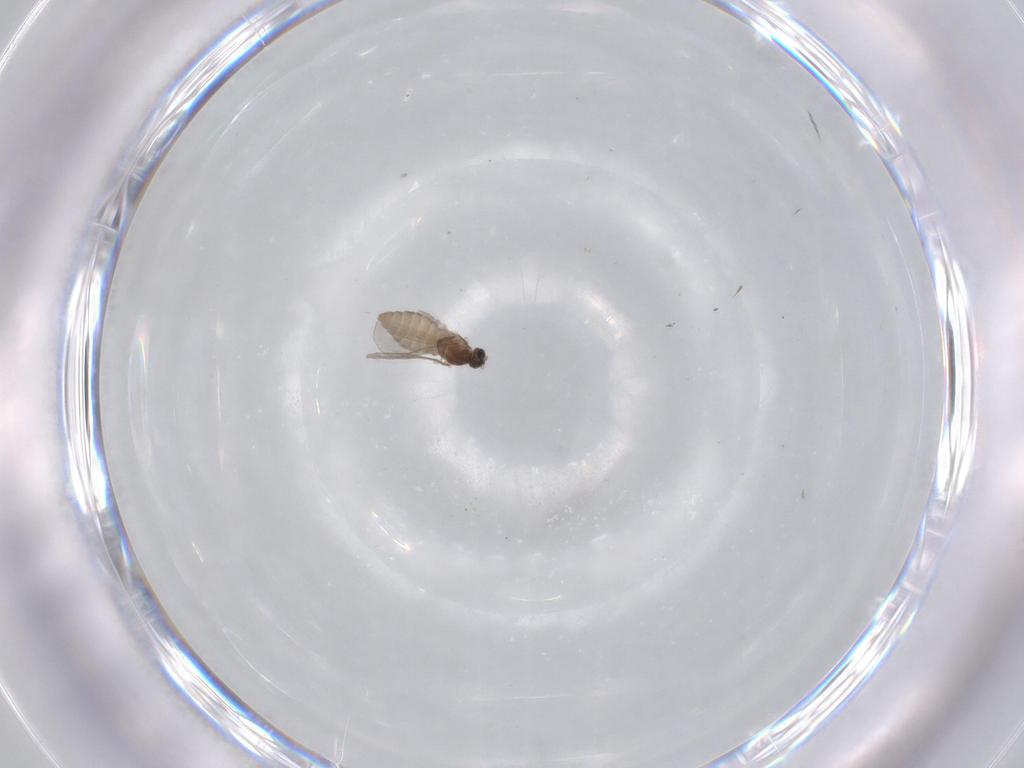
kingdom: Animalia
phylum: Arthropoda
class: Insecta
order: Diptera
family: Cecidomyiidae
